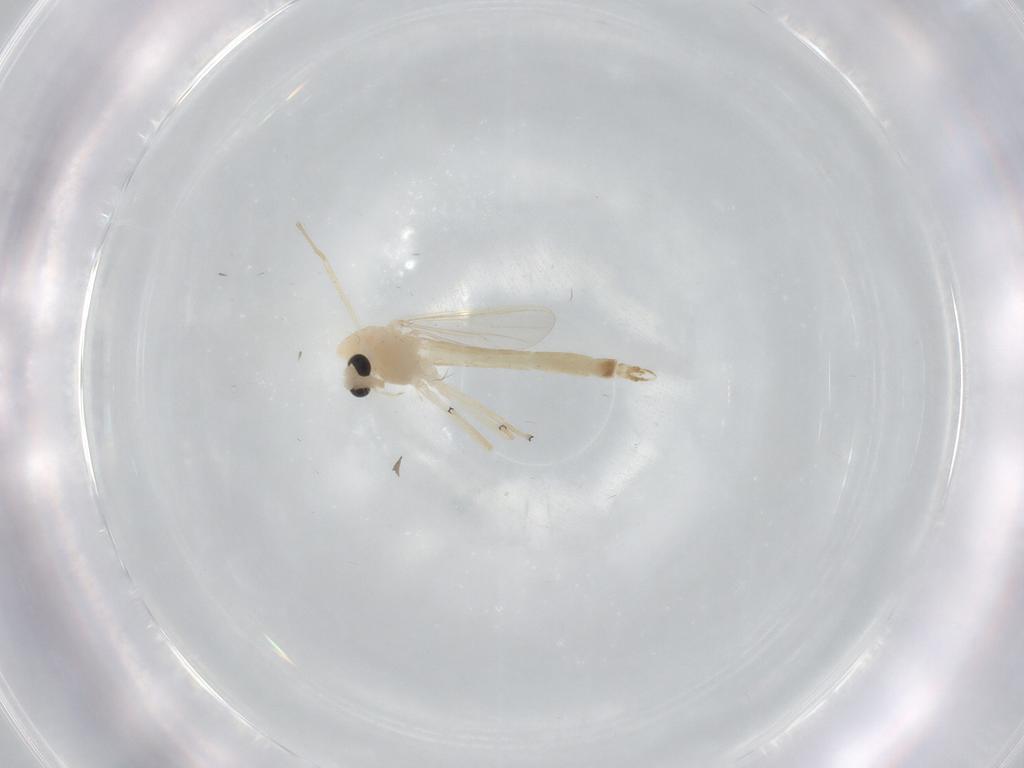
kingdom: Animalia
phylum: Arthropoda
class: Insecta
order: Diptera
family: Chironomidae
